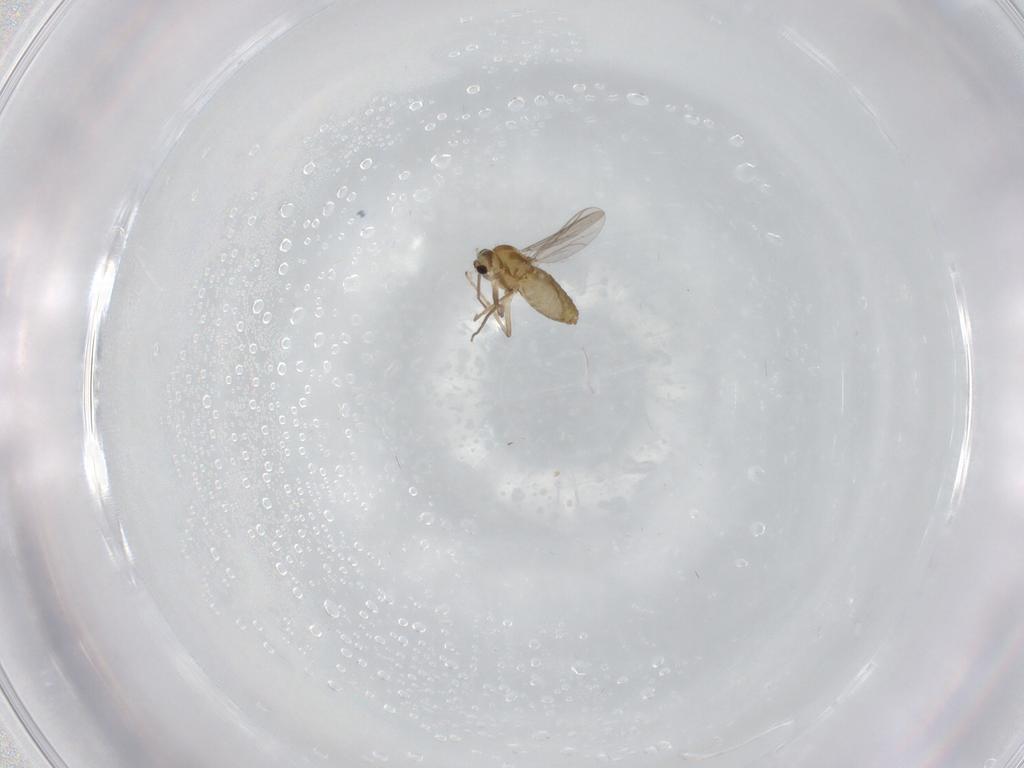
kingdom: Animalia
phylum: Arthropoda
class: Insecta
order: Diptera
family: Chironomidae
